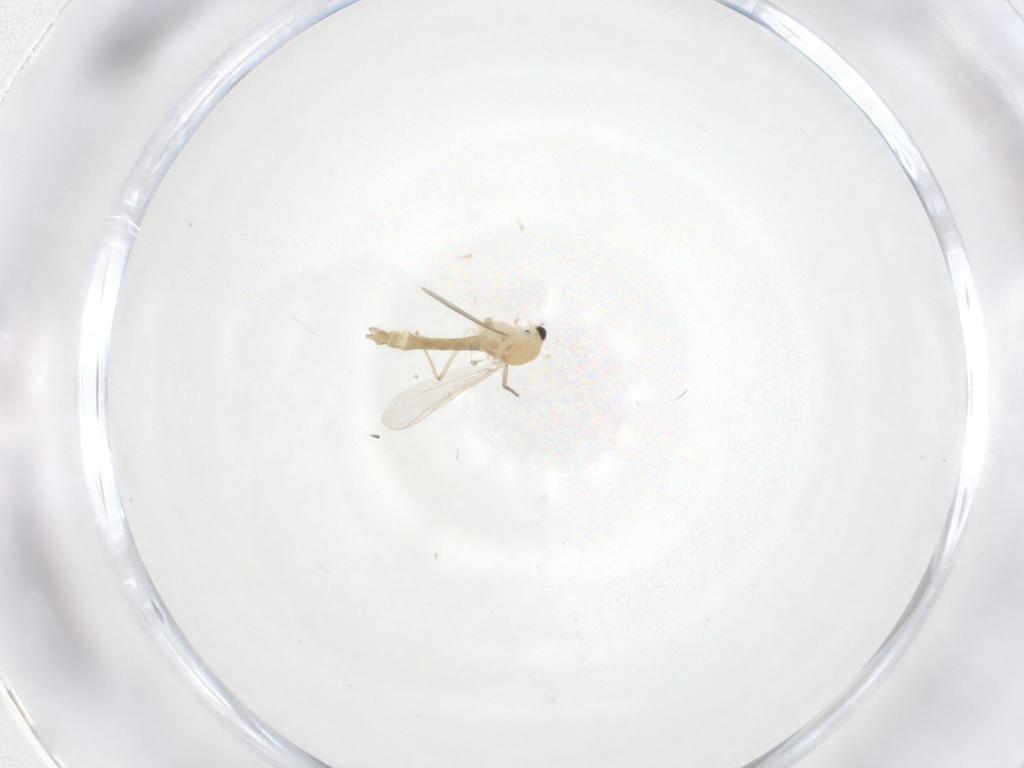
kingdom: Animalia
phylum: Arthropoda
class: Insecta
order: Diptera
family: Chironomidae
